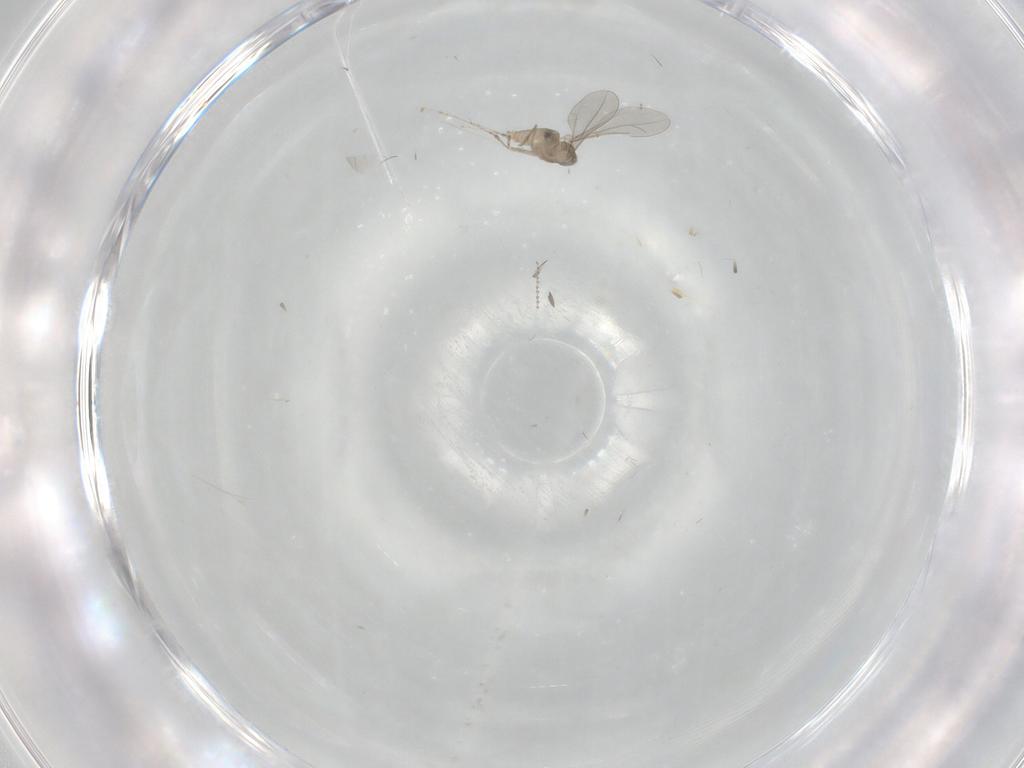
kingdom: Animalia
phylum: Arthropoda
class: Insecta
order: Diptera
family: Cecidomyiidae
